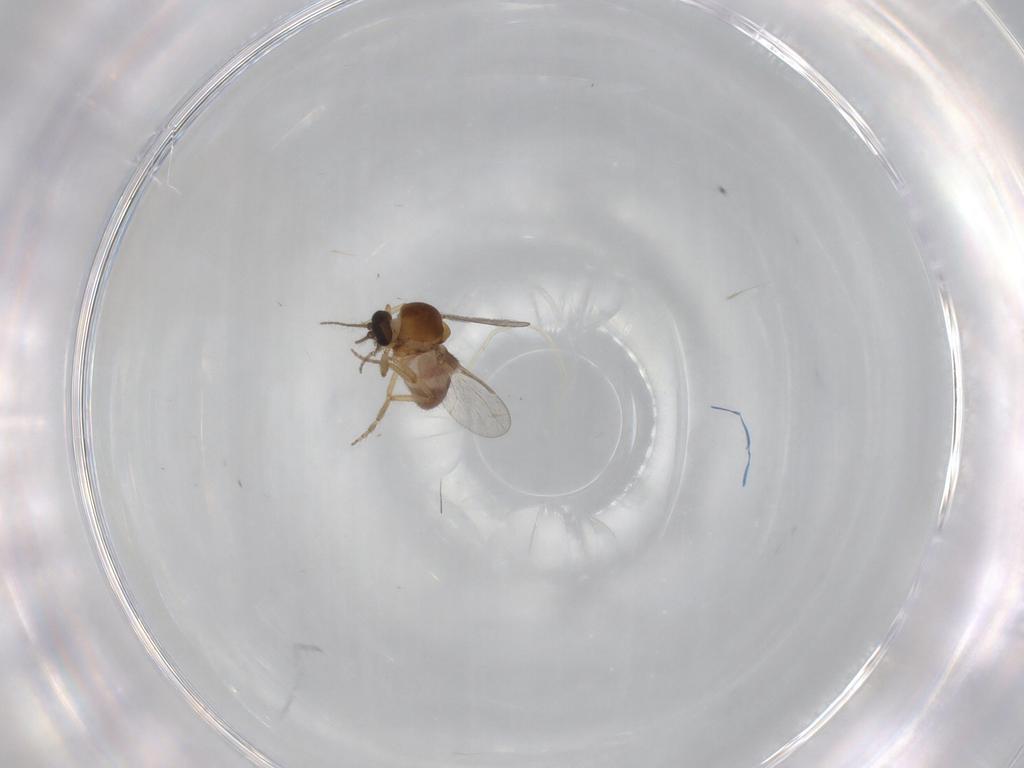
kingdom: Animalia
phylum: Arthropoda
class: Insecta
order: Diptera
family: Ceratopogonidae
